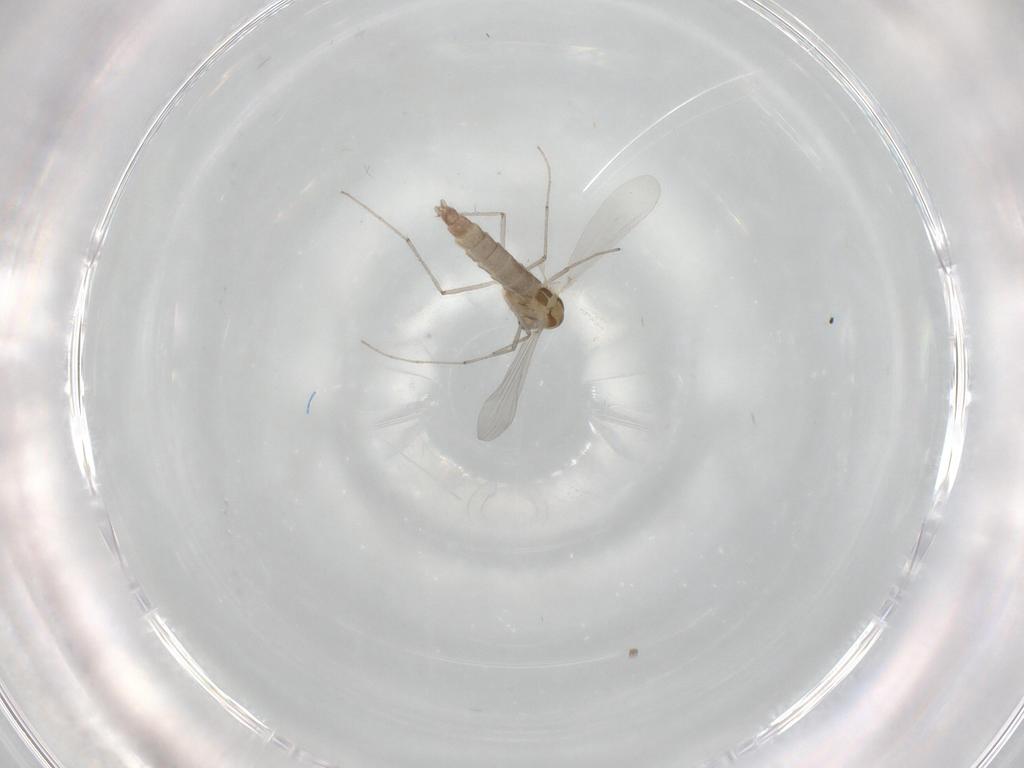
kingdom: Animalia
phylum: Arthropoda
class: Insecta
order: Diptera
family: Chironomidae
